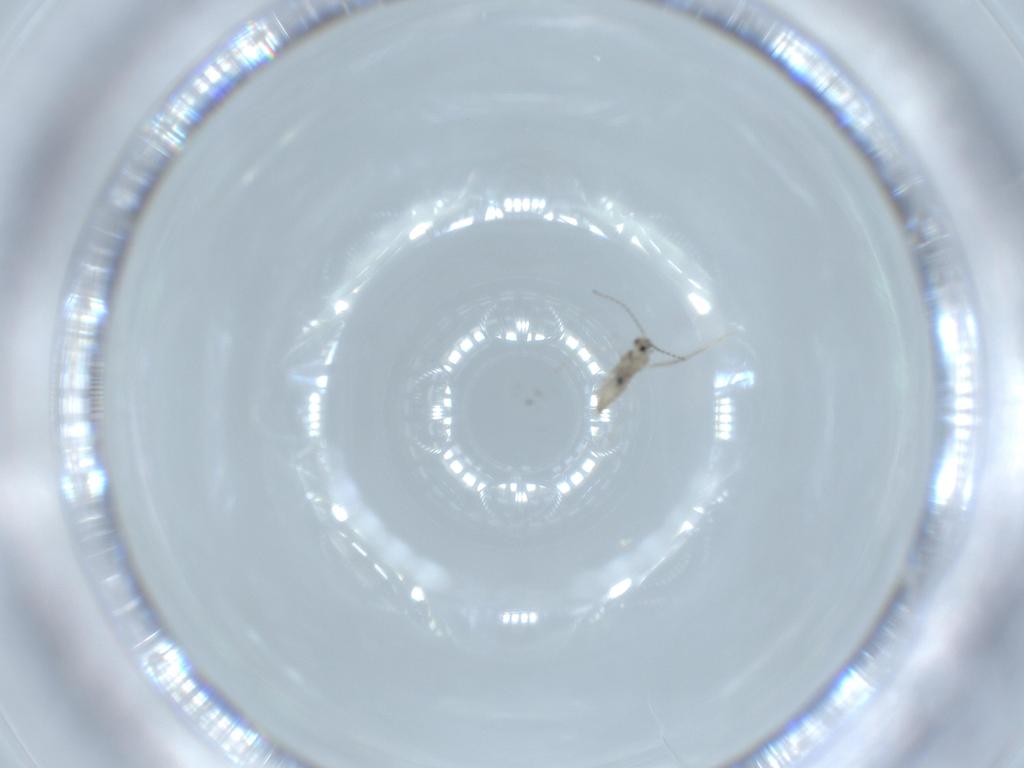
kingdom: Animalia
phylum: Arthropoda
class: Insecta
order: Diptera
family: Cecidomyiidae
